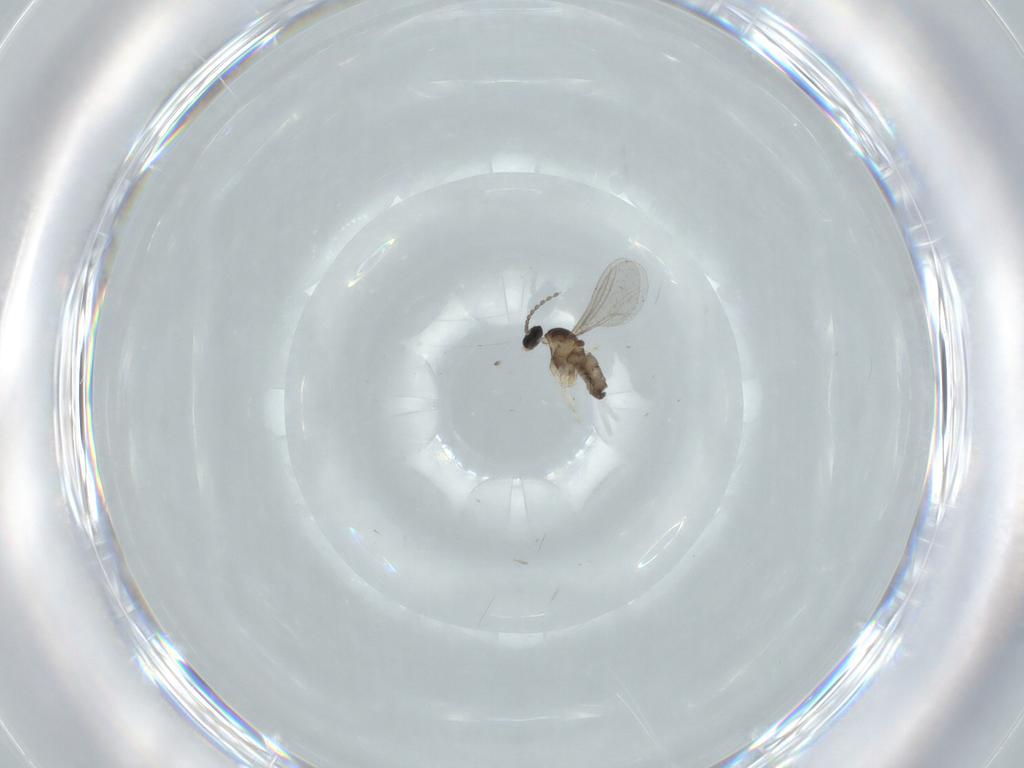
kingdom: Animalia
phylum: Arthropoda
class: Insecta
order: Diptera
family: Cecidomyiidae
